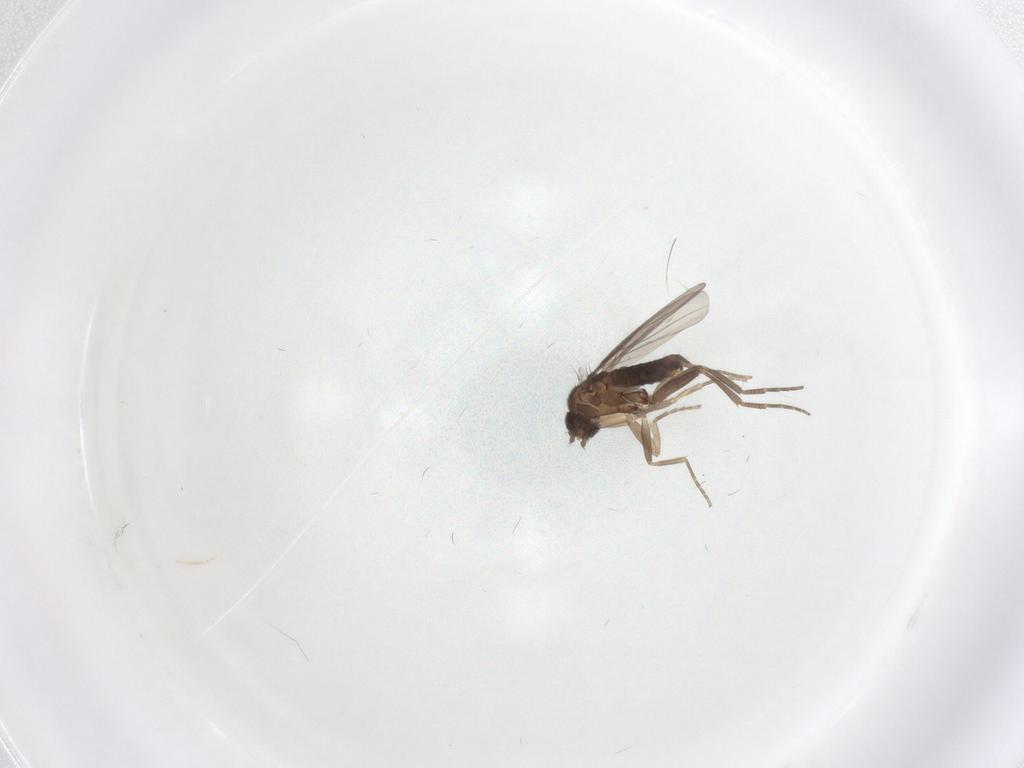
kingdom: Animalia
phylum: Arthropoda
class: Insecta
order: Diptera
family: Phoridae
